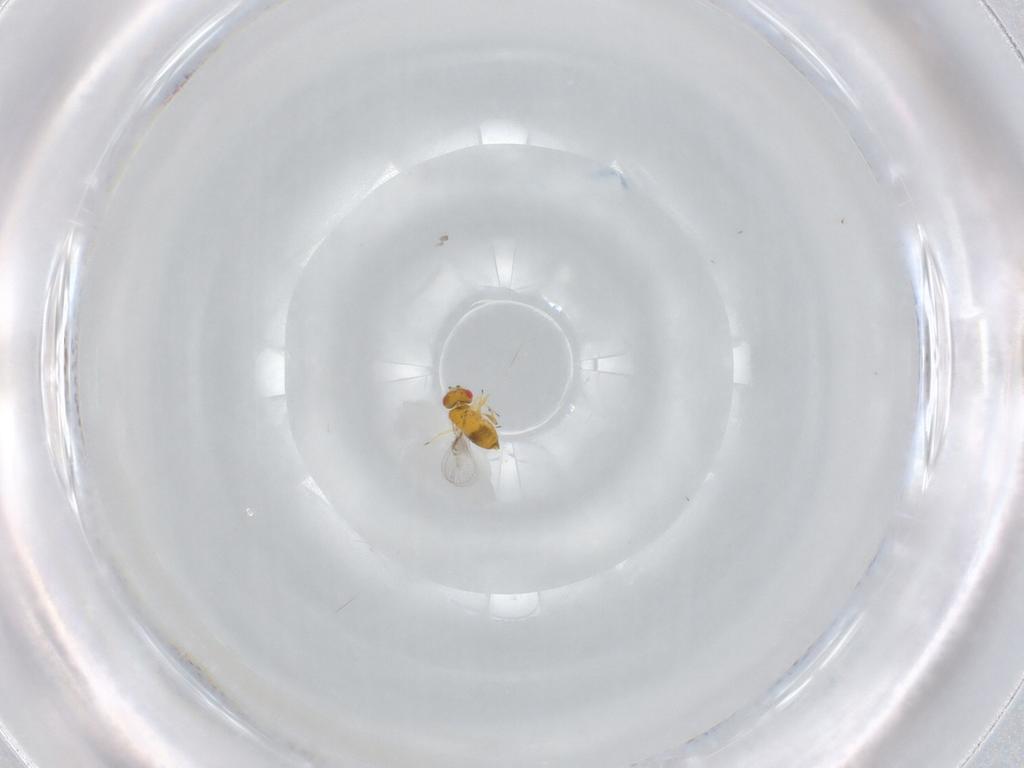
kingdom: Animalia
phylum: Arthropoda
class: Insecta
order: Hymenoptera
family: Trichogrammatidae
